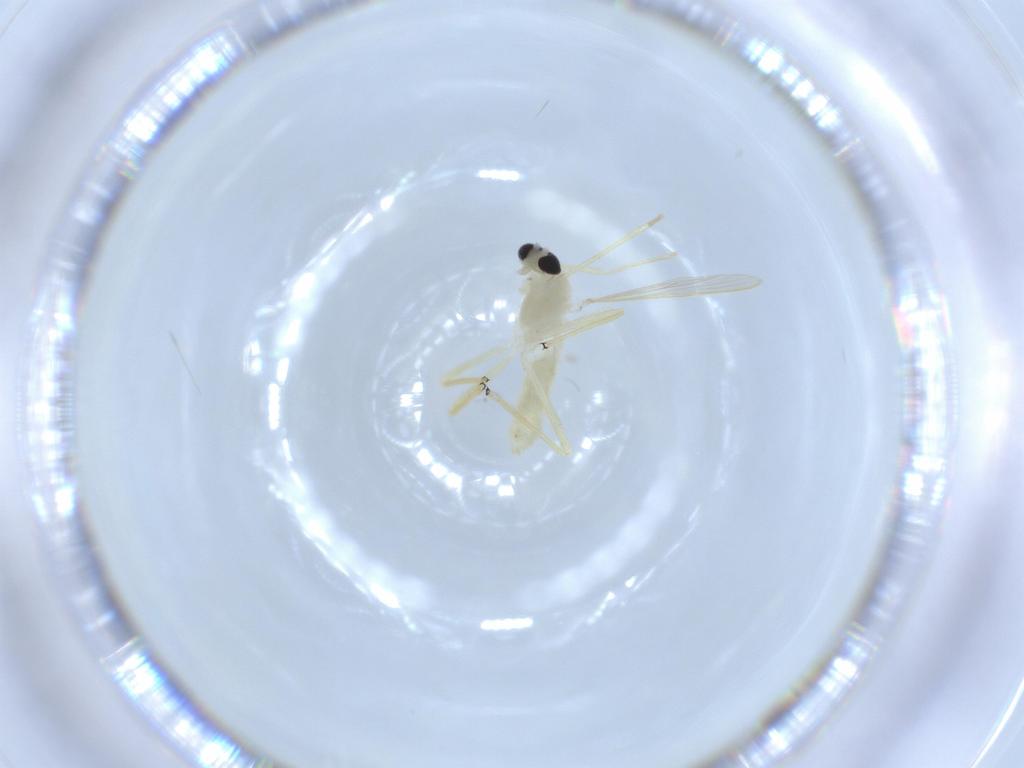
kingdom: Animalia
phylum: Arthropoda
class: Insecta
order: Diptera
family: Chironomidae
